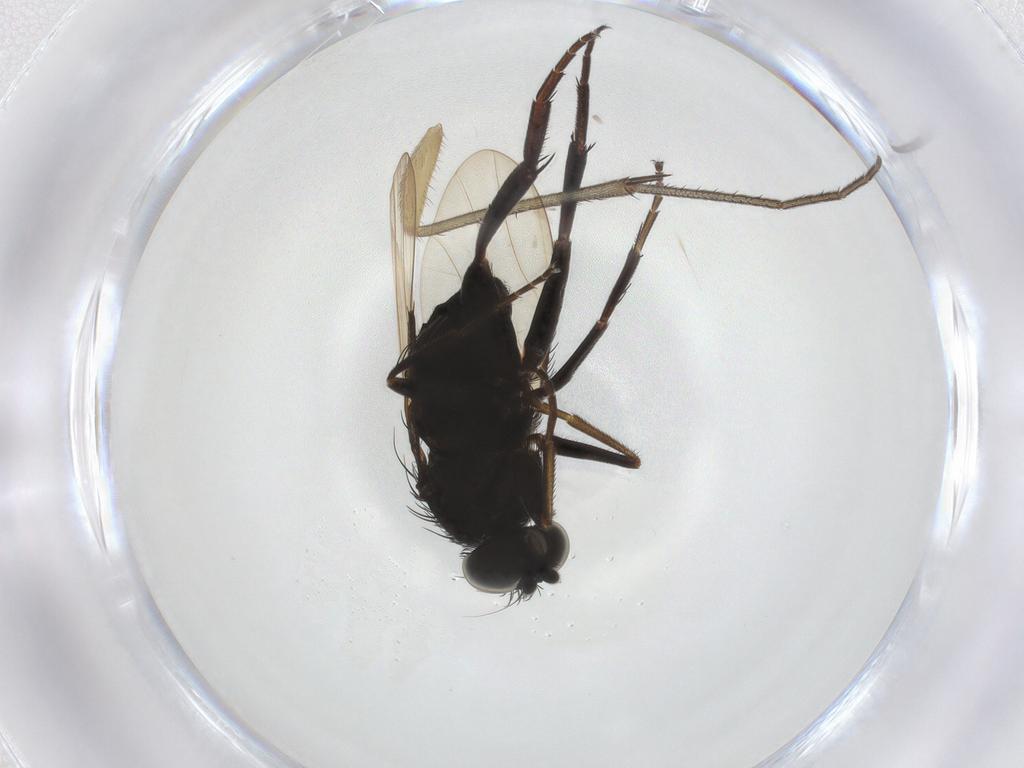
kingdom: Animalia
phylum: Arthropoda
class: Insecta
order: Diptera
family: Mycetophilidae
